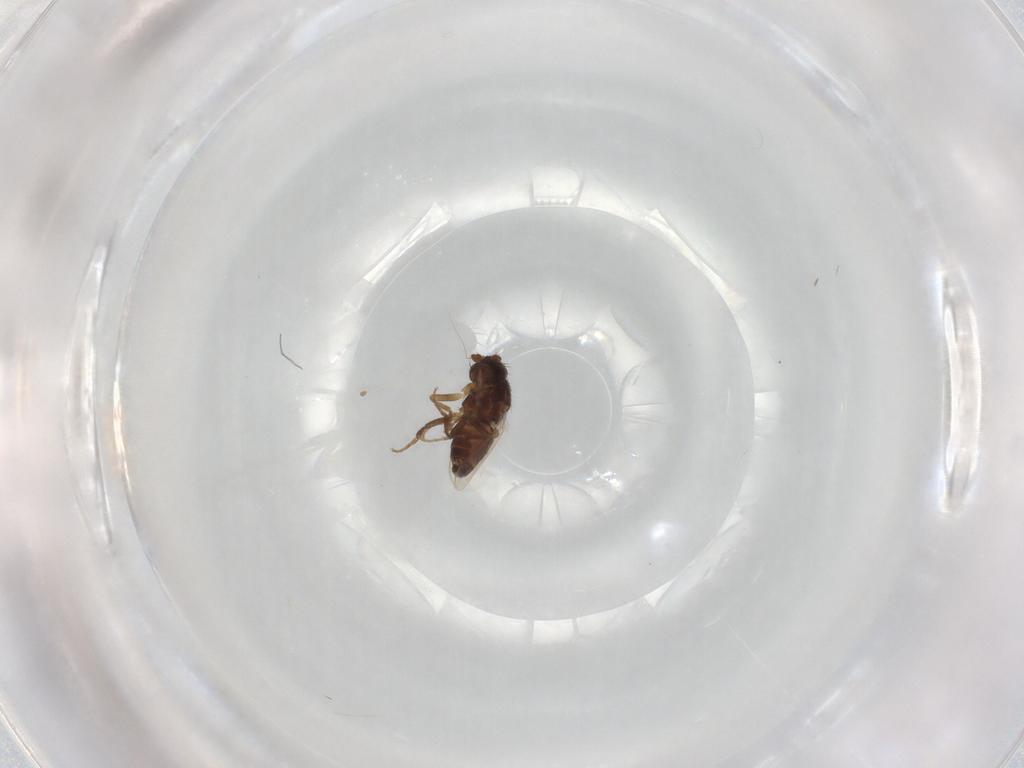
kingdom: Animalia
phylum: Arthropoda
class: Insecta
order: Diptera
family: Sphaeroceridae
